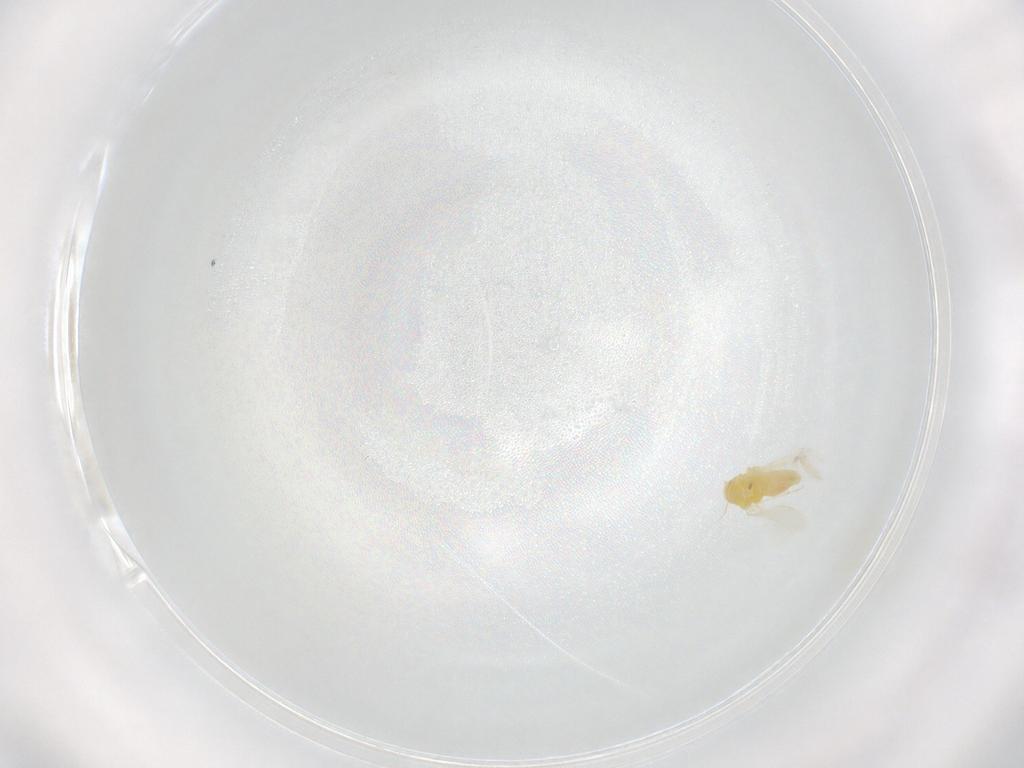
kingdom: Animalia
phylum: Arthropoda
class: Insecta
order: Hemiptera
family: Aleyrodidae
